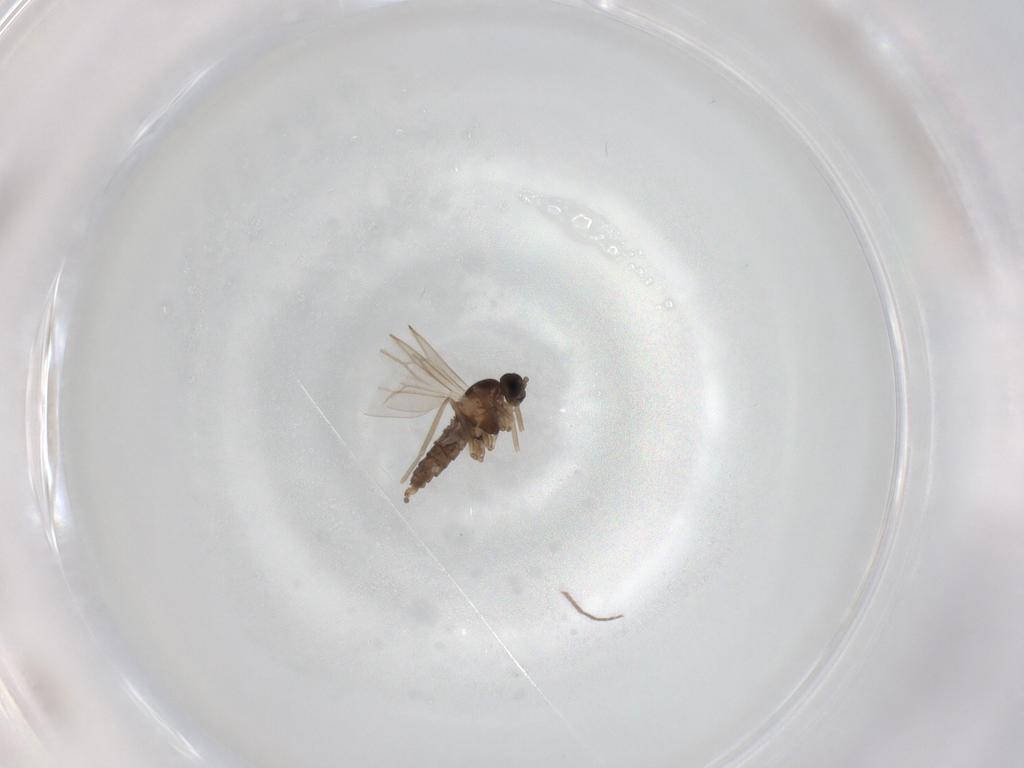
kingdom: Animalia
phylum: Arthropoda
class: Insecta
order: Diptera
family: Cecidomyiidae
